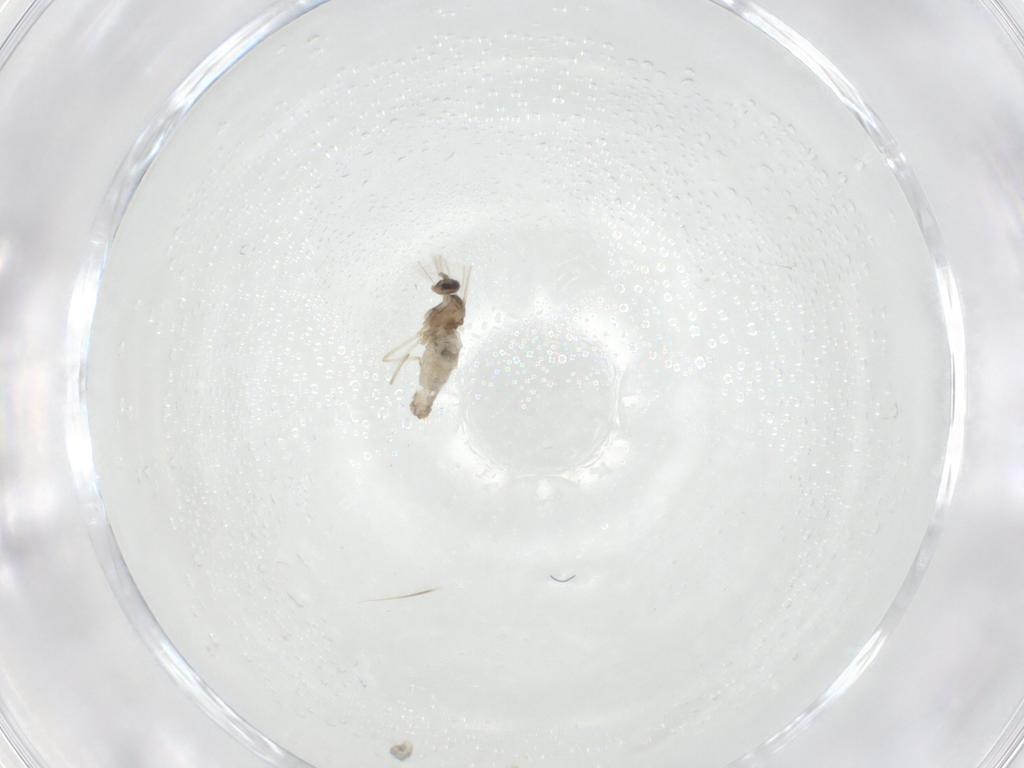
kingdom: Animalia
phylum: Arthropoda
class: Insecta
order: Diptera
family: Cecidomyiidae
